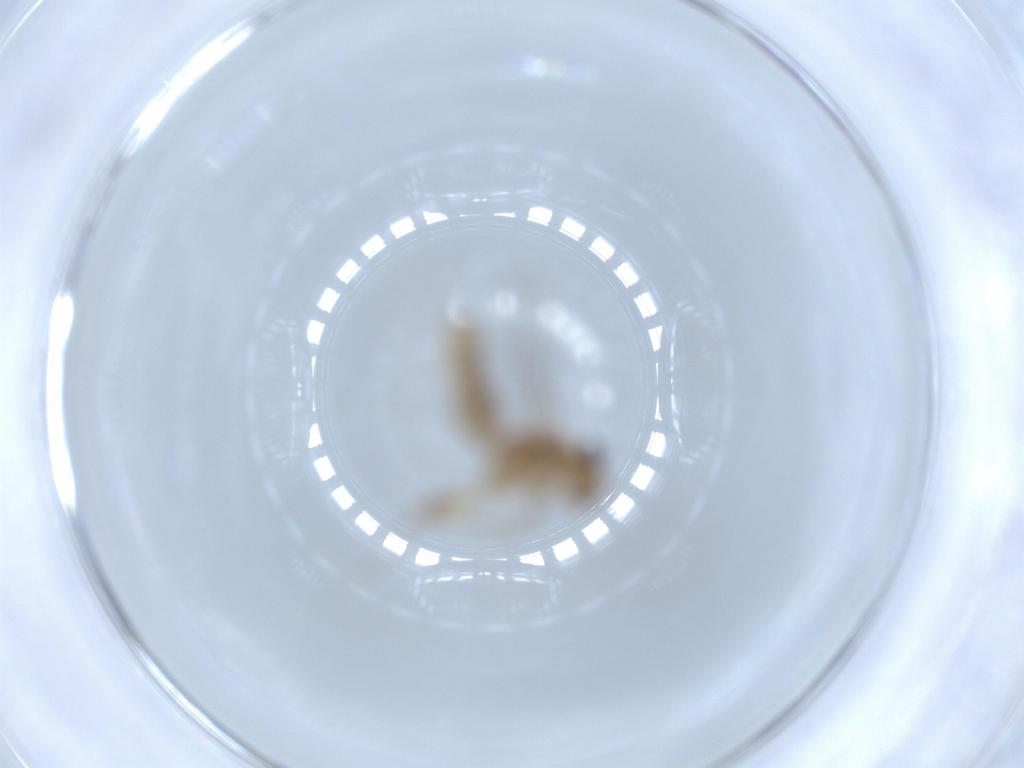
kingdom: Animalia
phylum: Arthropoda
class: Insecta
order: Psocodea
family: Lepidopsocidae
